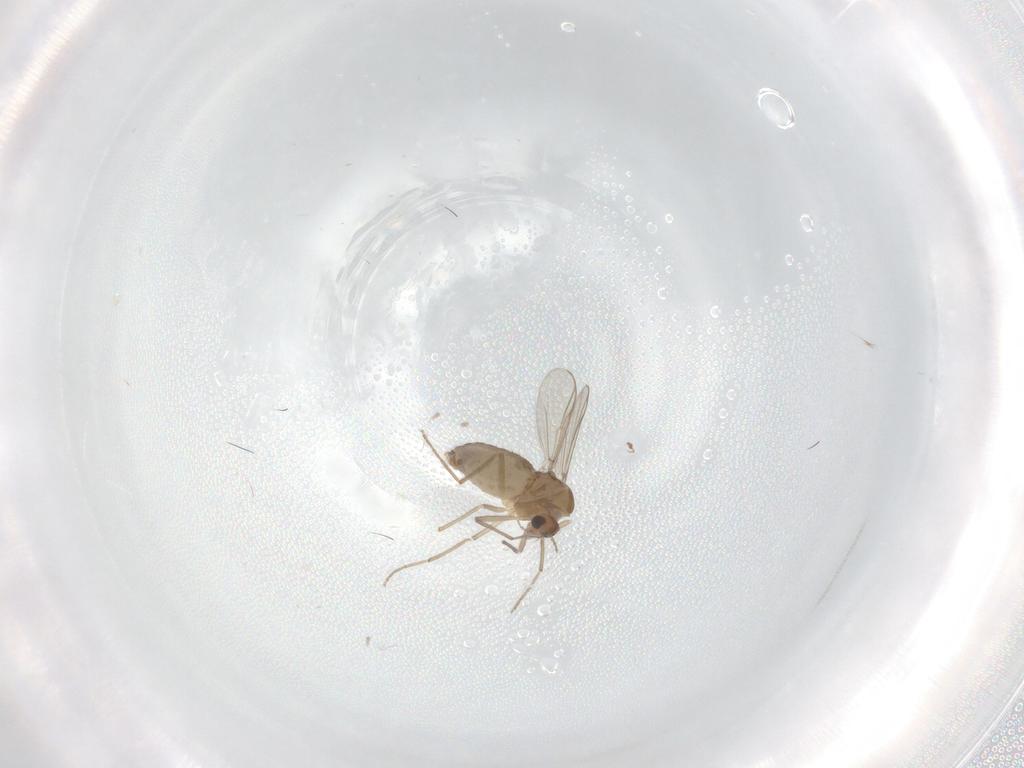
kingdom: Animalia
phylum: Arthropoda
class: Insecta
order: Diptera
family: Chironomidae
